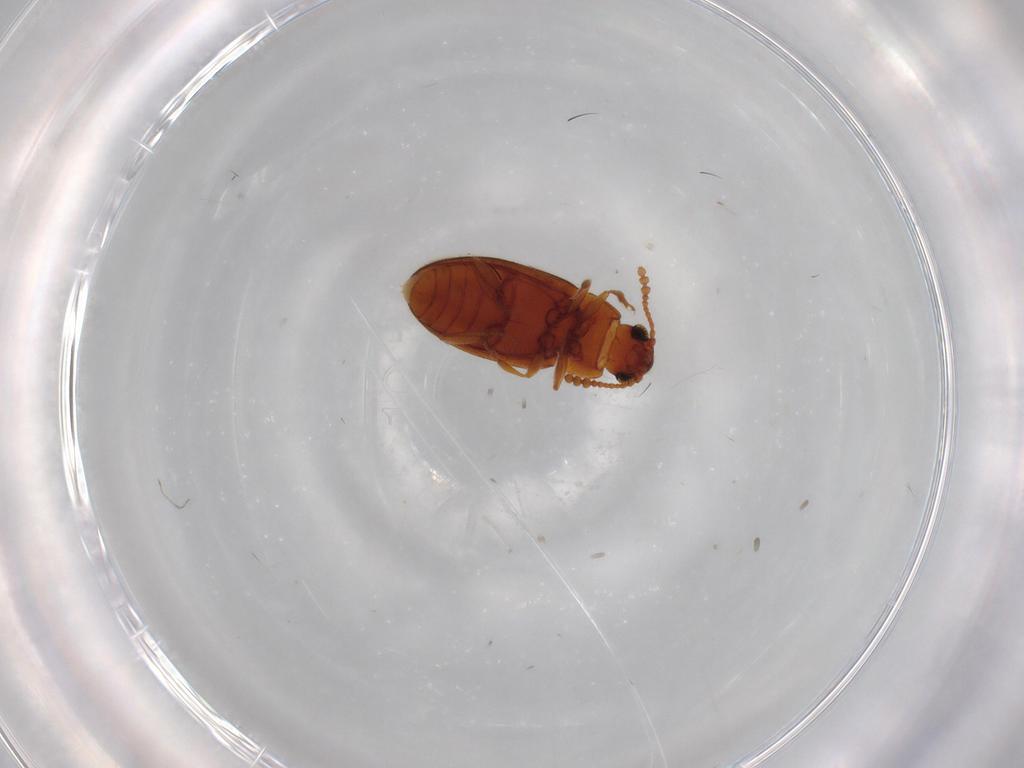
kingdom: Animalia
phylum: Arthropoda
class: Insecta
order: Coleoptera
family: Erotylidae
